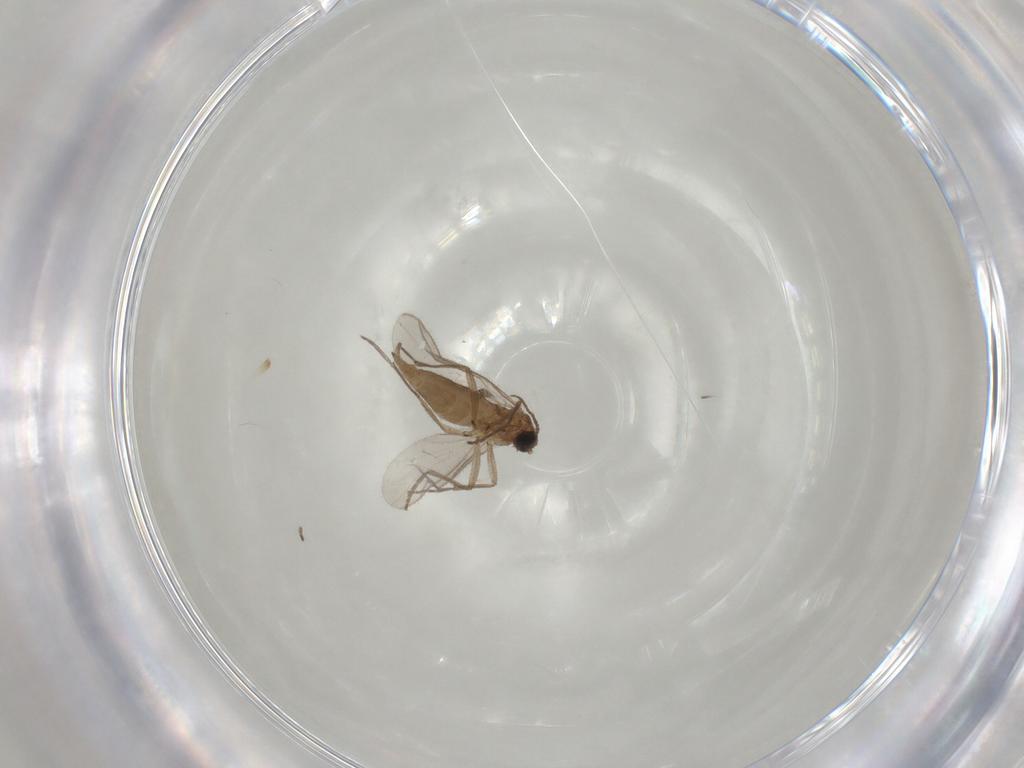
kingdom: Animalia
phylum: Arthropoda
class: Insecta
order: Diptera
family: Sciaridae
